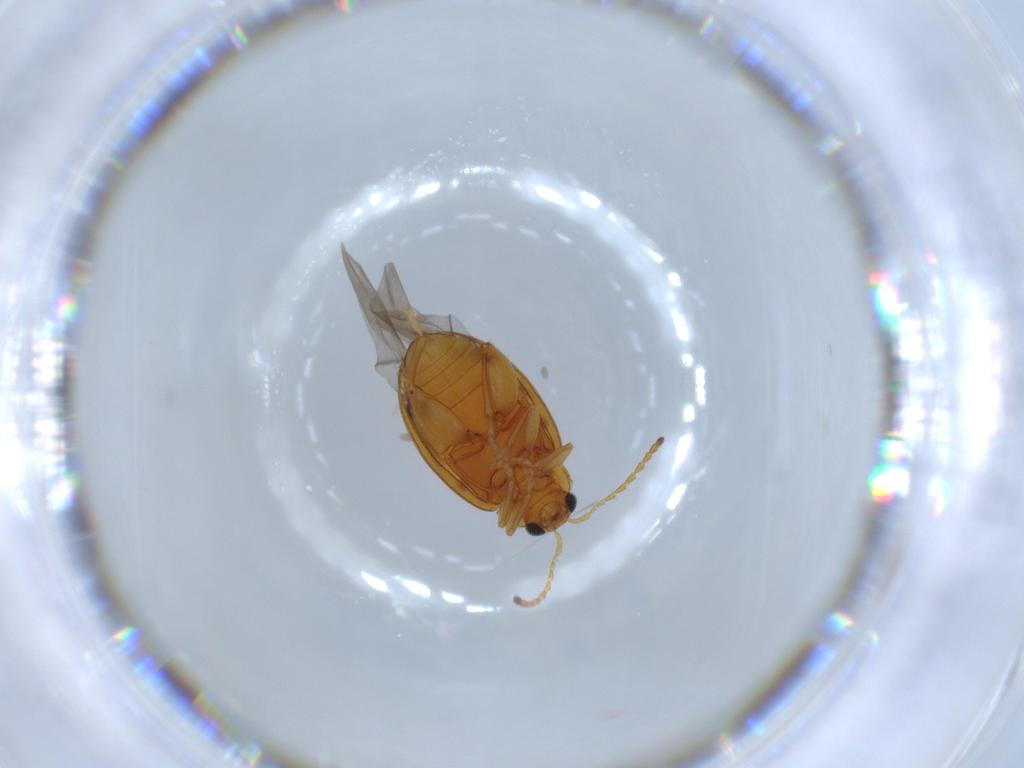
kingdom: Animalia
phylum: Arthropoda
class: Insecta
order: Coleoptera
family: Chrysomelidae
